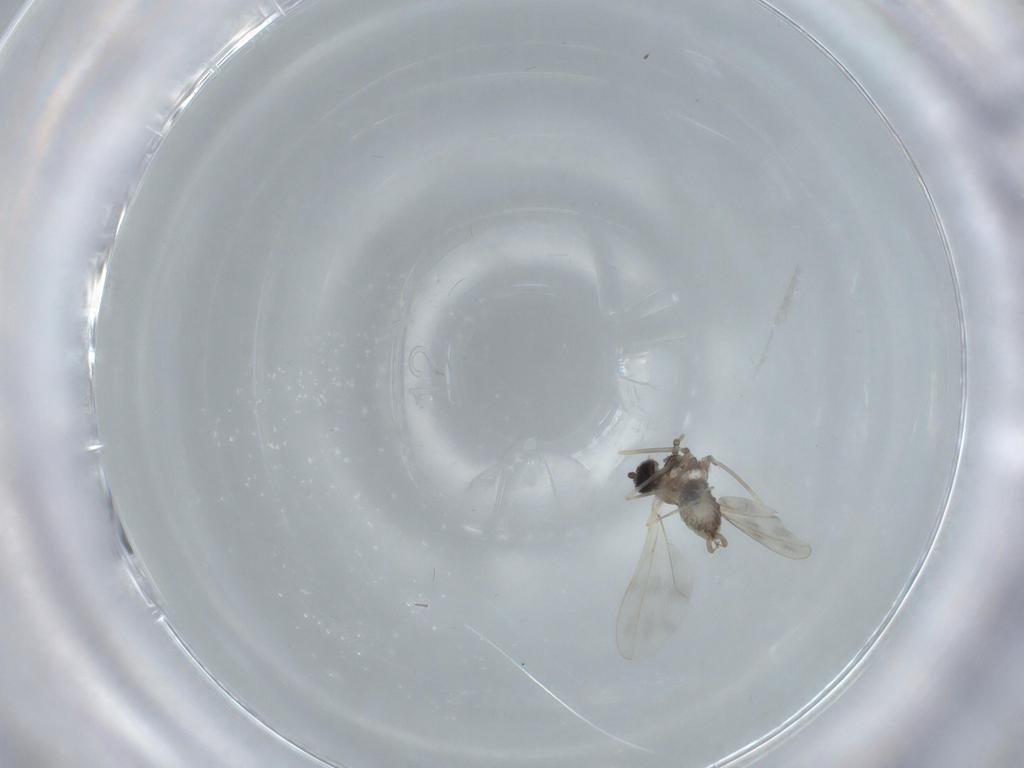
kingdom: Animalia
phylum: Arthropoda
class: Insecta
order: Diptera
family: Cecidomyiidae
